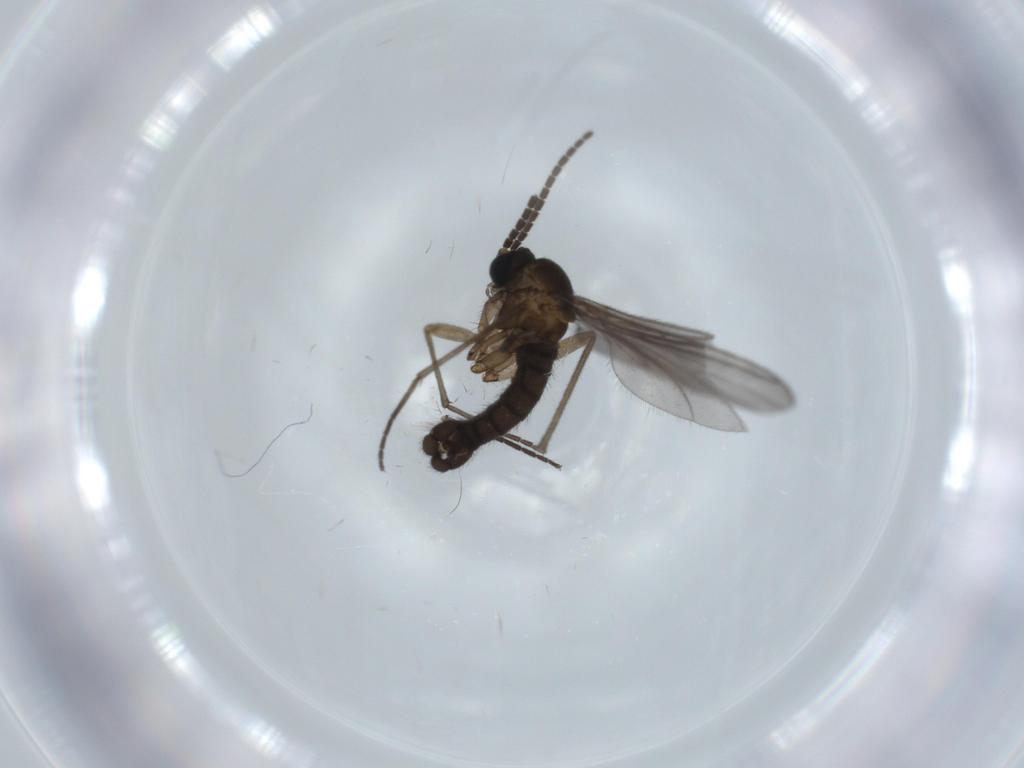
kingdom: Animalia
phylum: Arthropoda
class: Insecta
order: Diptera
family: Sciaridae
